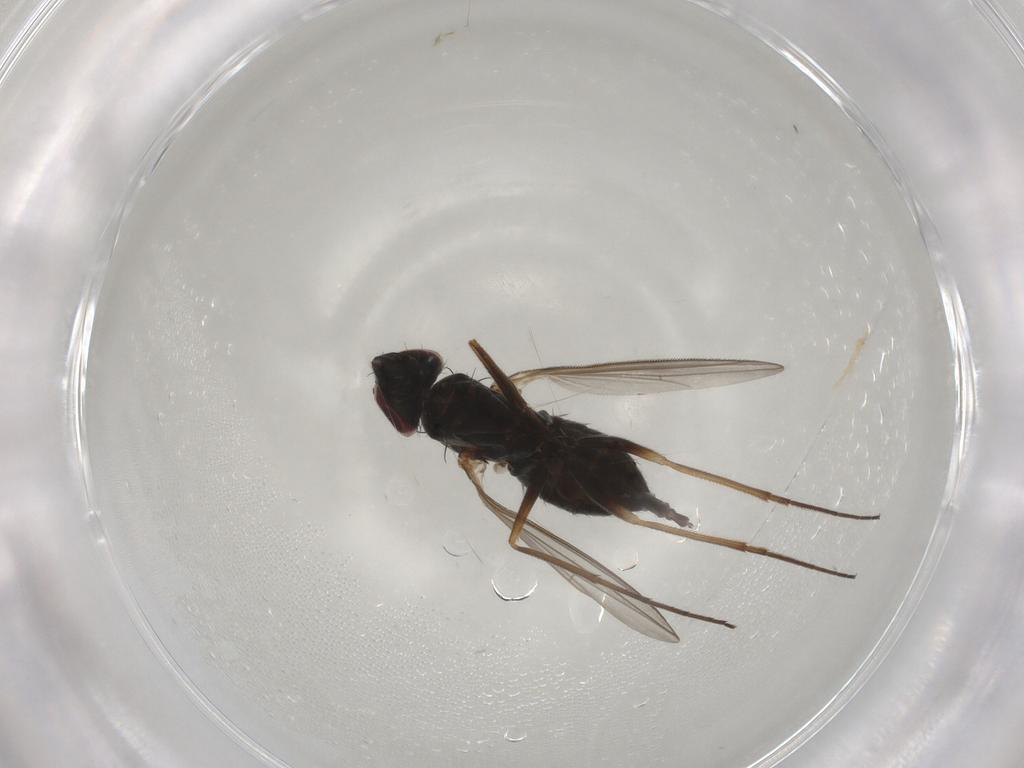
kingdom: Animalia
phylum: Arthropoda
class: Insecta
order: Diptera
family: Dolichopodidae
